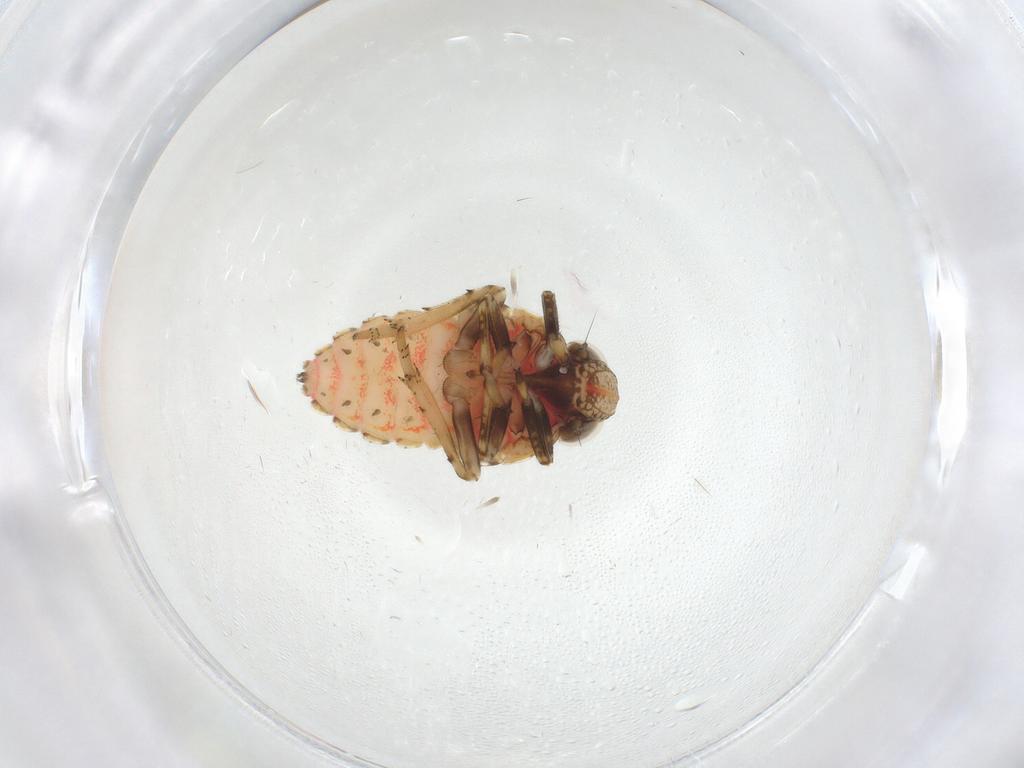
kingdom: Animalia
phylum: Arthropoda
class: Insecta
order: Hemiptera
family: Issidae
